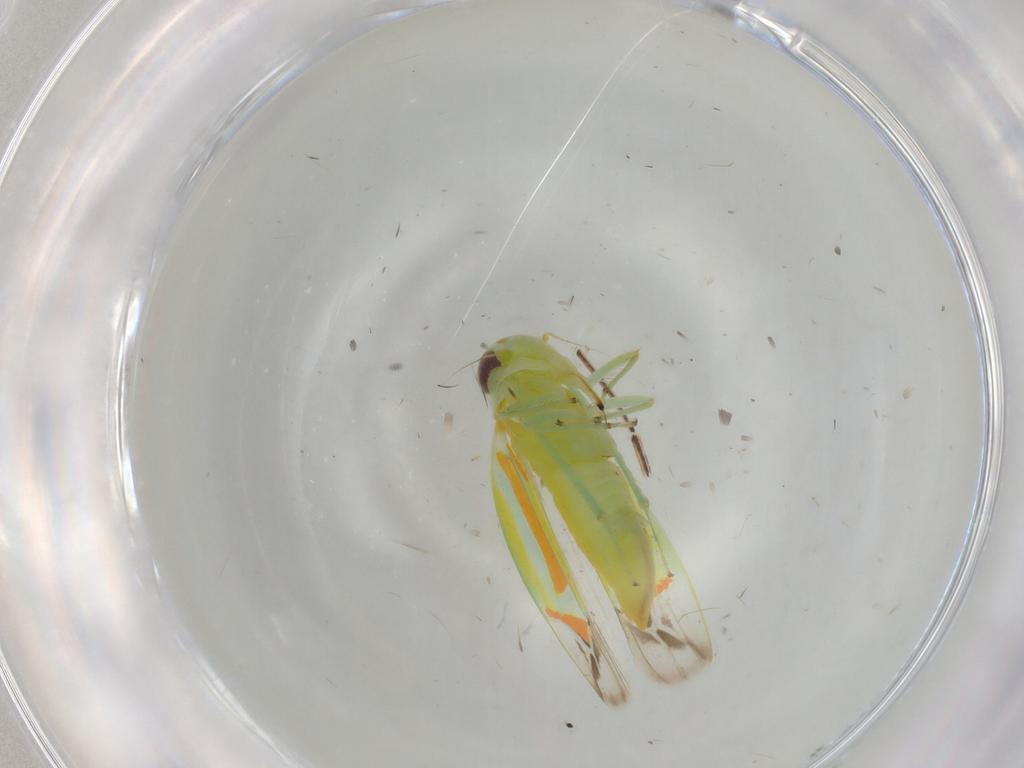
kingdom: Animalia
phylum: Arthropoda
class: Insecta
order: Hemiptera
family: Cicadellidae
